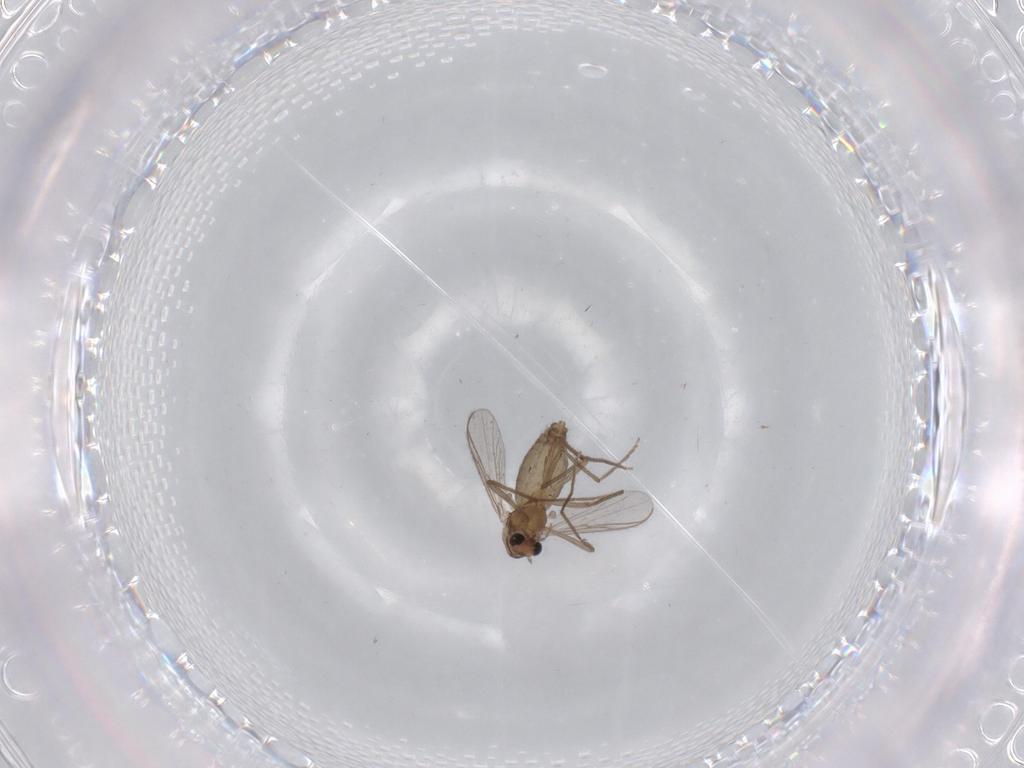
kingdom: Animalia
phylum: Arthropoda
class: Insecta
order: Diptera
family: Chironomidae
